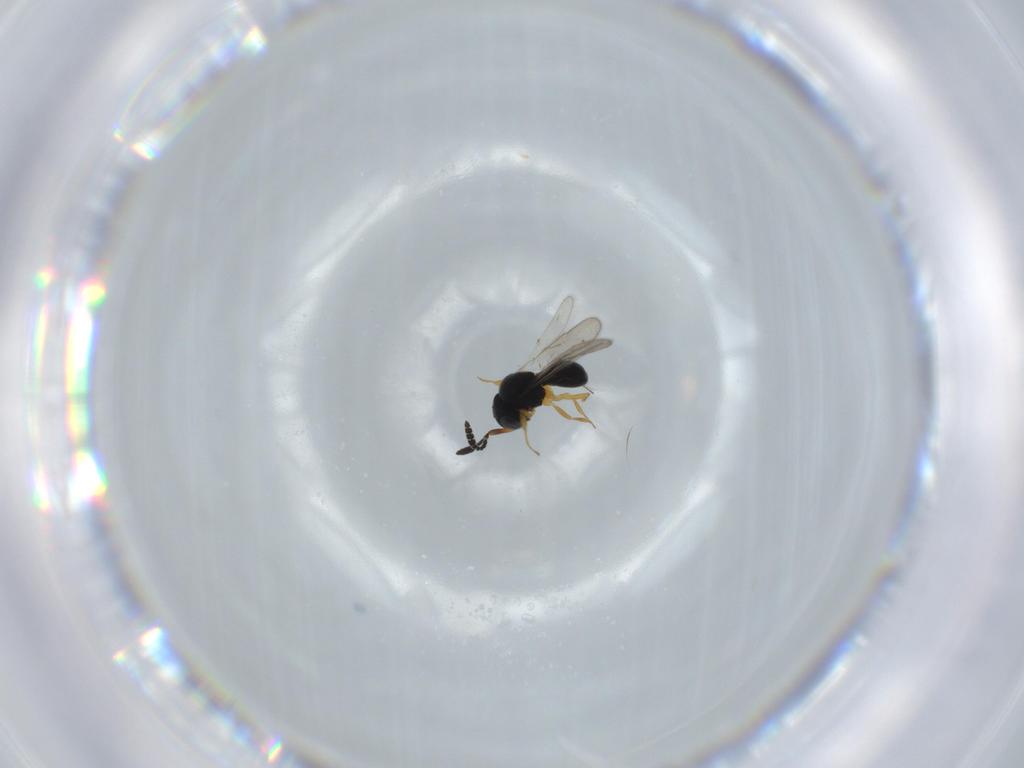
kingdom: Animalia
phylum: Arthropoda
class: Insecta
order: Hymenoptera
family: Scelionidae
